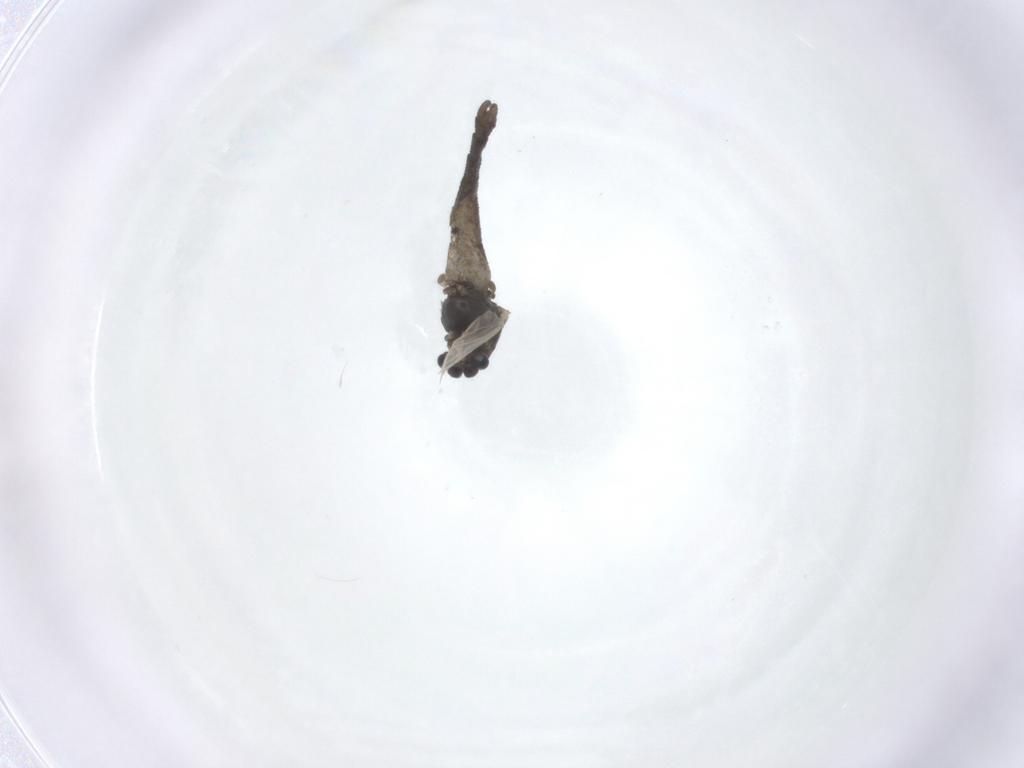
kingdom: Animalia
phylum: Arthropoda
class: Insecta
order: Diptera
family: Chironomidae
